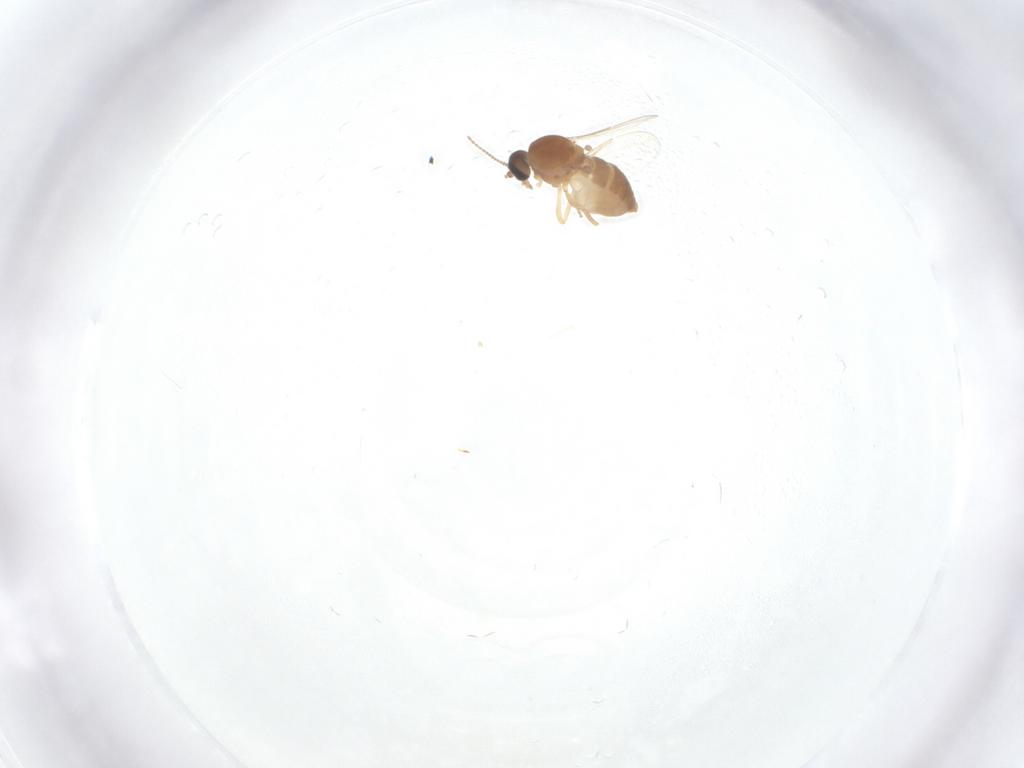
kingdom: Animalia
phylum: Arthropoda
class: Insecta
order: Diptera
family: Ceratopogonidae
